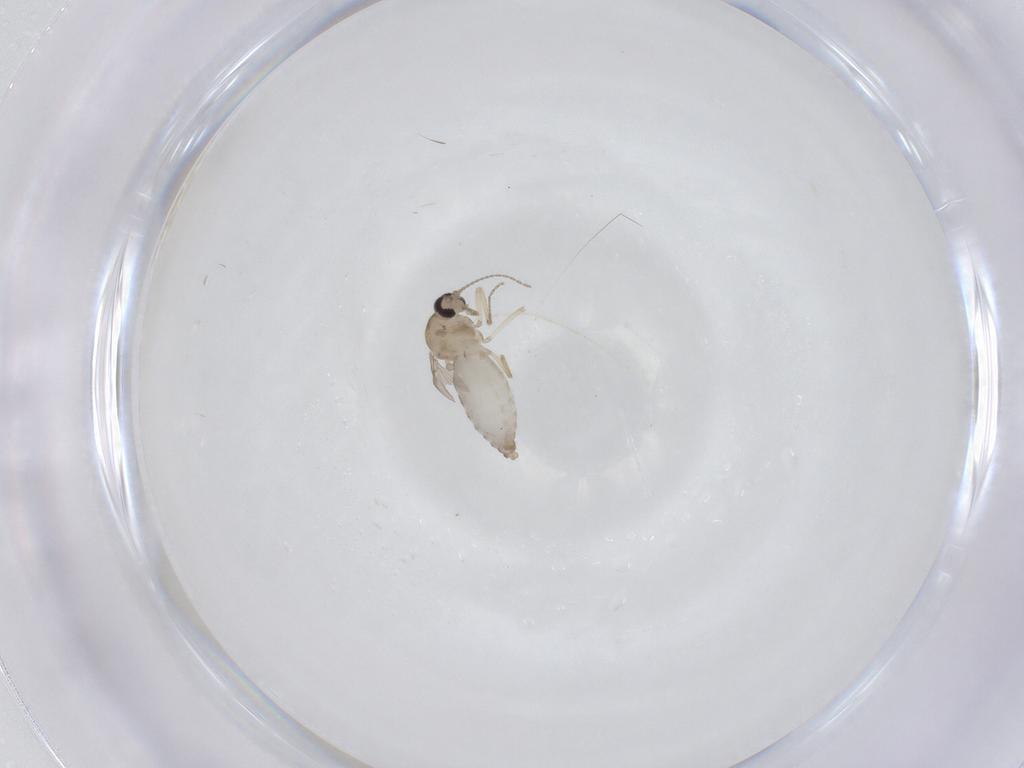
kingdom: Animalia
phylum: Arthropoda
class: Insecta
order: Diptera
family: Ceratopogonidae
